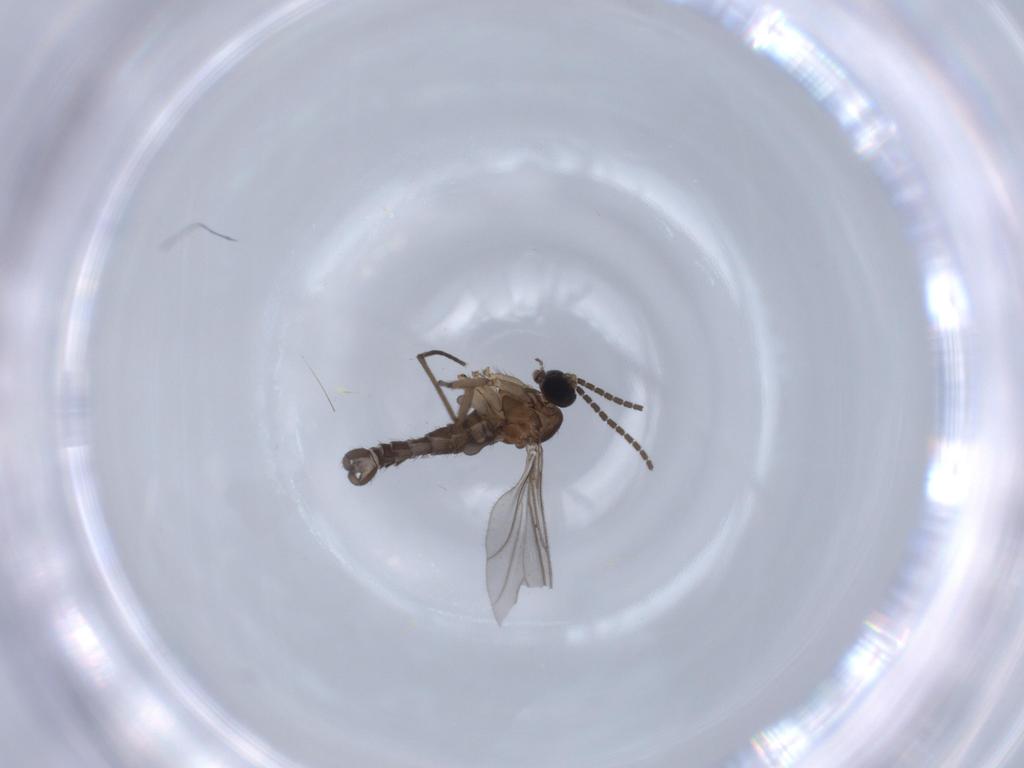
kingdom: Animalia
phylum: Arthropoda
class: Insecta
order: Diptera
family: Sciaridae
